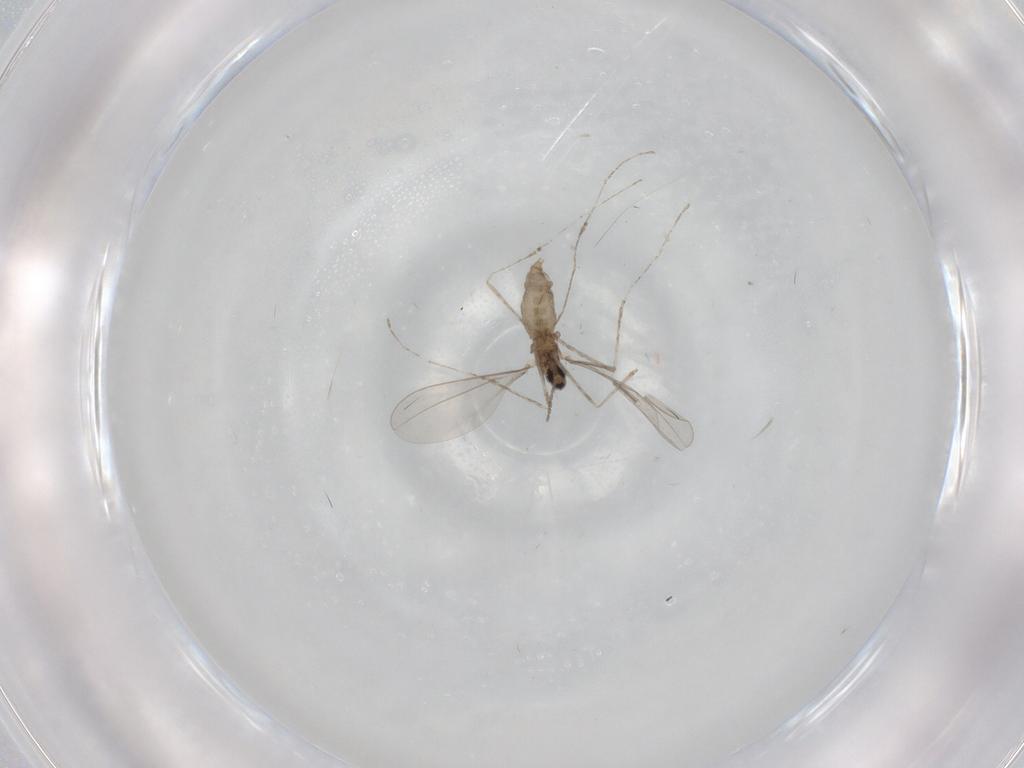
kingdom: Animalia
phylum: Arthropoda
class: Insecta
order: Diptera
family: Cecidomyiidae
